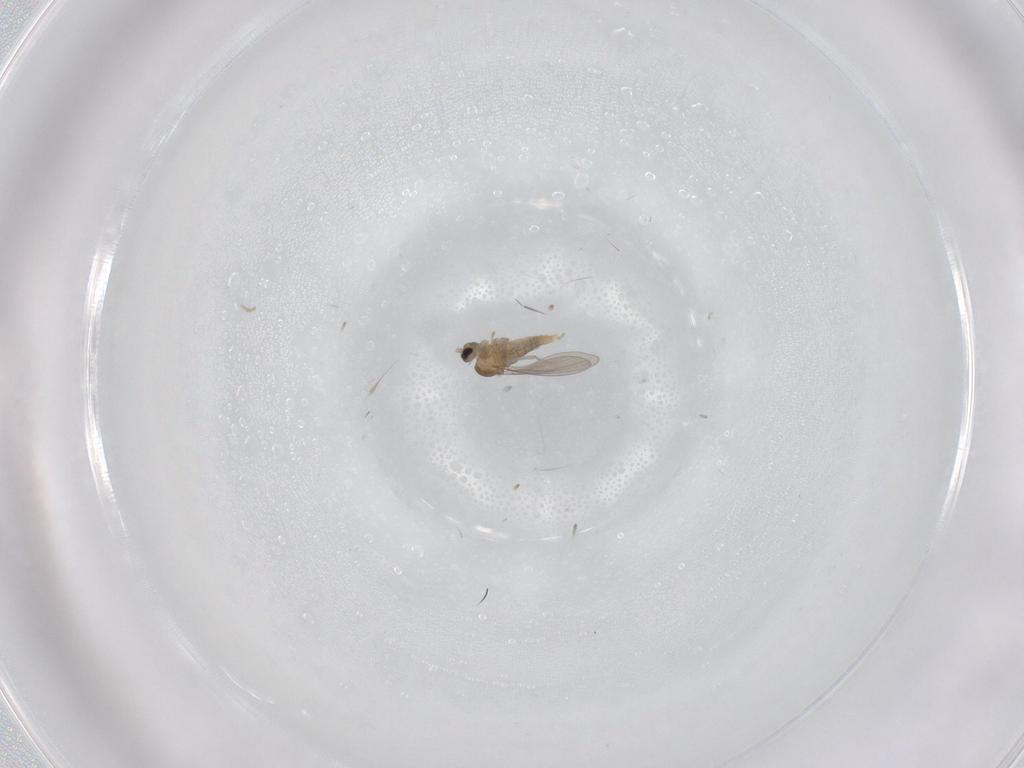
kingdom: Animalia
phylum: Arthropoda
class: Insecta
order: Diptera
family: Cecidomyiidae
